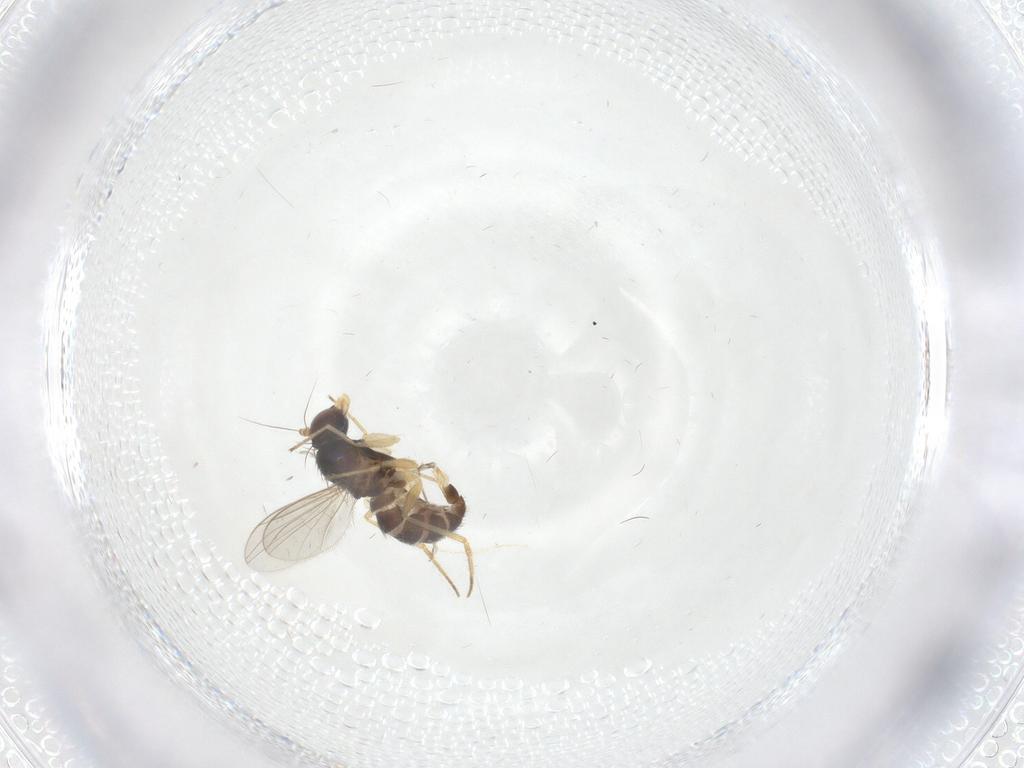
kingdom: Animalia
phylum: Arthropoda
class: Insecta
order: Diptera
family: Dolichopodidae
